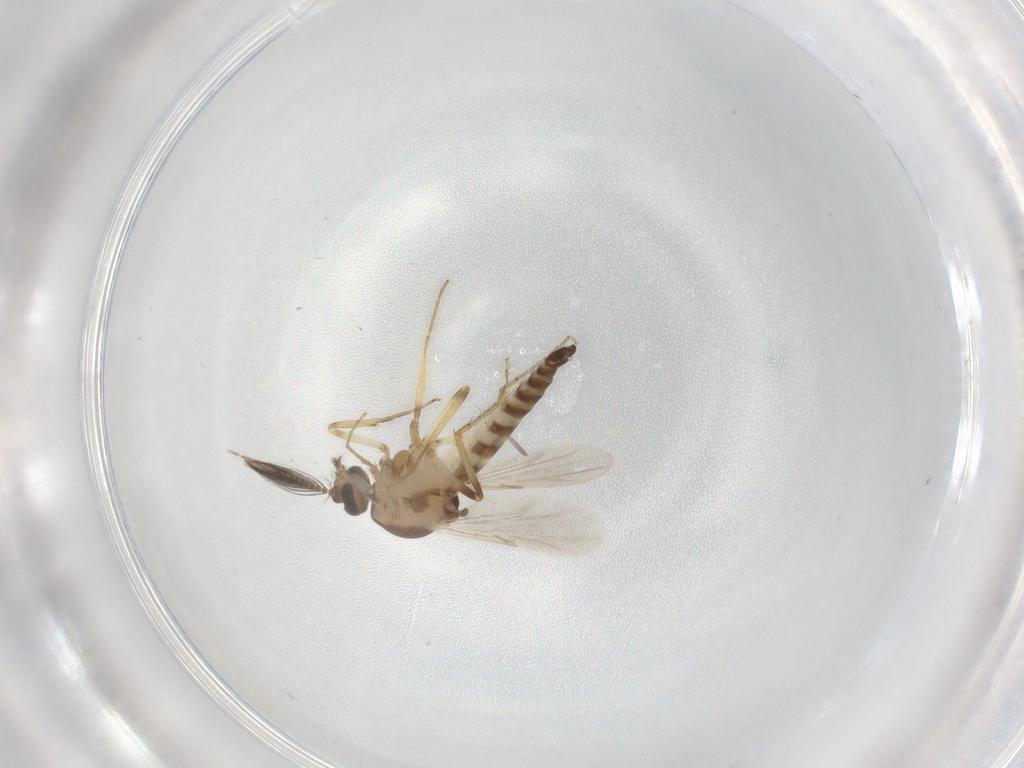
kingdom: Animalia
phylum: Arthropoda
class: Insecta
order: Diptera
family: Ceratopogonidae
